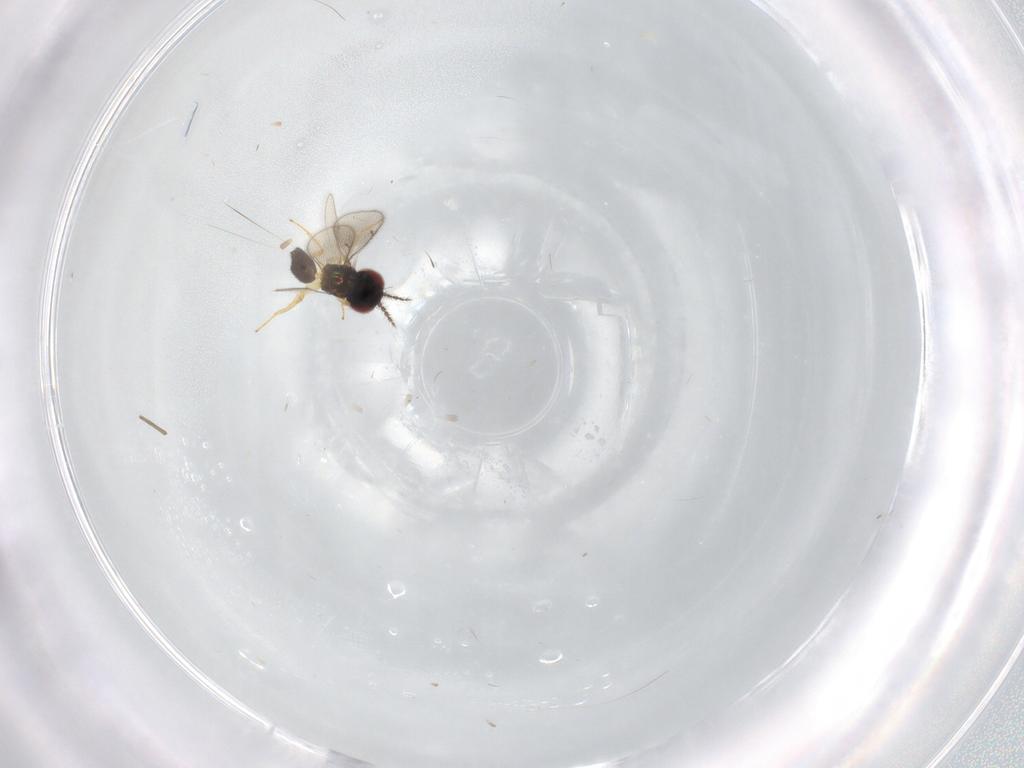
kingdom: Animalia
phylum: Arthropoda
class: Insecta
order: Hymenoptera
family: Eulophidae
